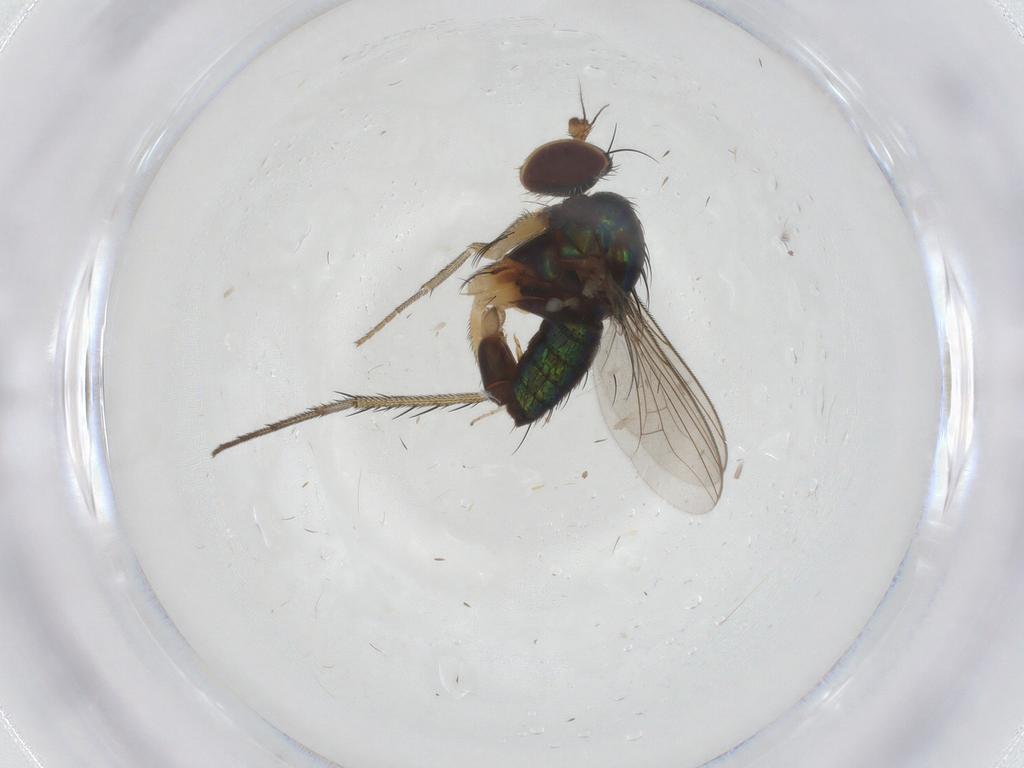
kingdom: Animalia
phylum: Arthropoda
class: Insecta
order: Diptera
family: Dolichopodidae
